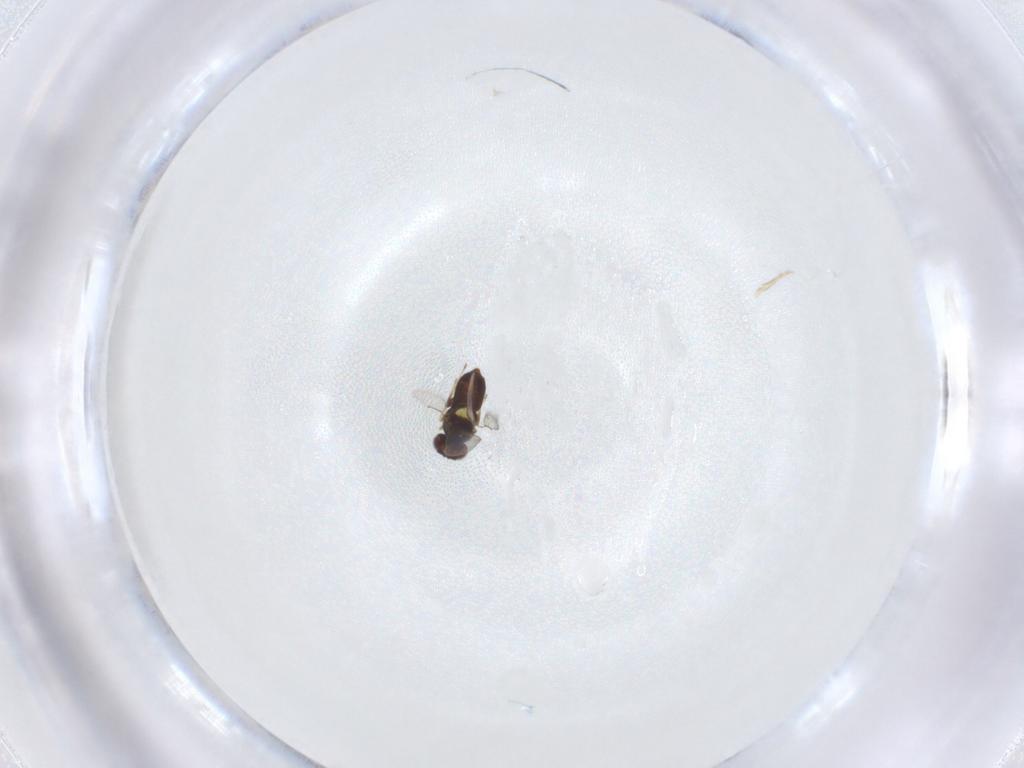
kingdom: Animalia
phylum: Arthropoda
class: Insecta
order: Hymenoptera
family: Aphelinidae
